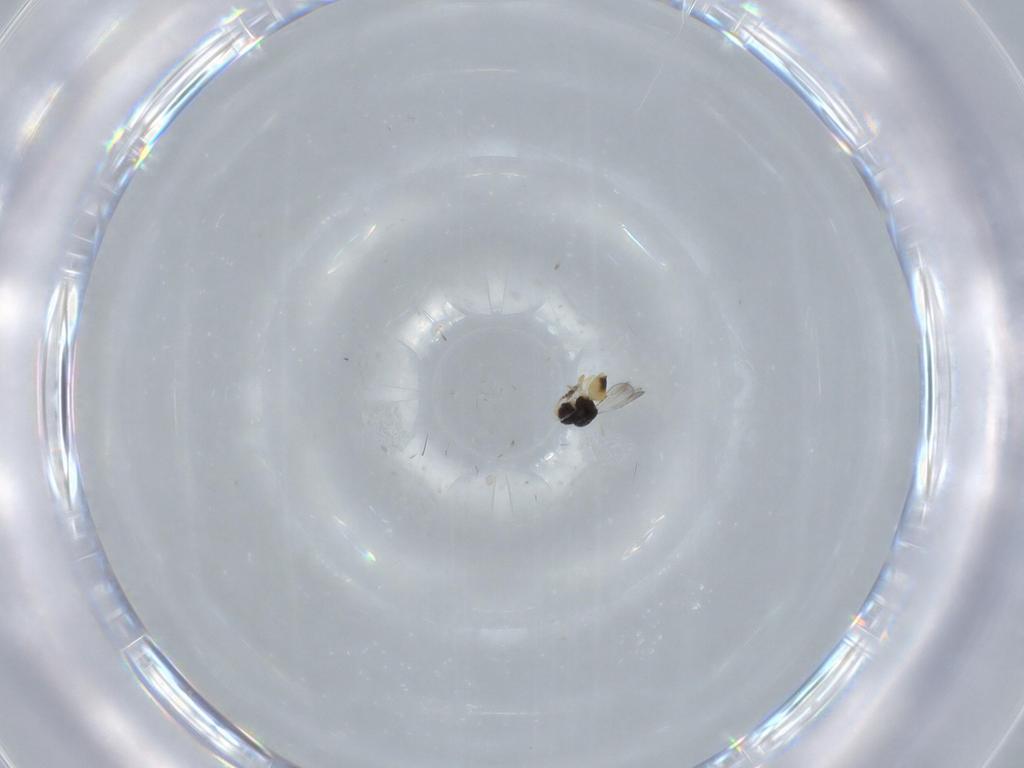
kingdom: Animalia
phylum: Arthropoda
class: Insecta
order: Hymenoptera
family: Ceraphronidae
